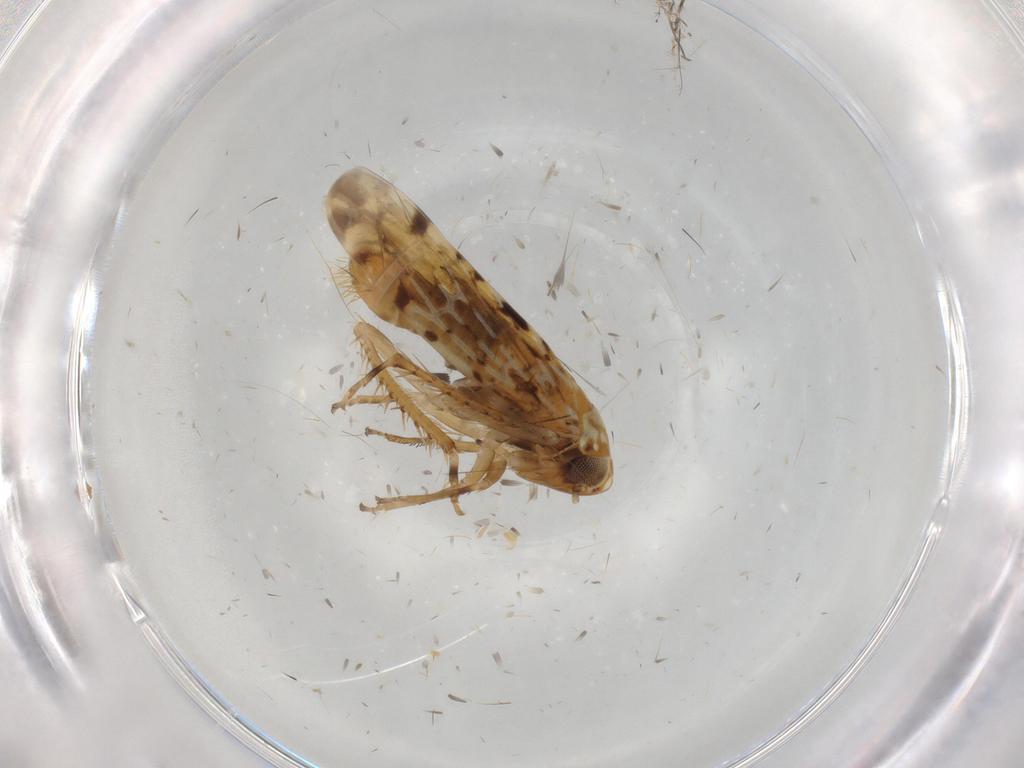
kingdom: Animalia
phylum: Arthropoda
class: Insecta
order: Hemiptera
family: Cicadellidae
